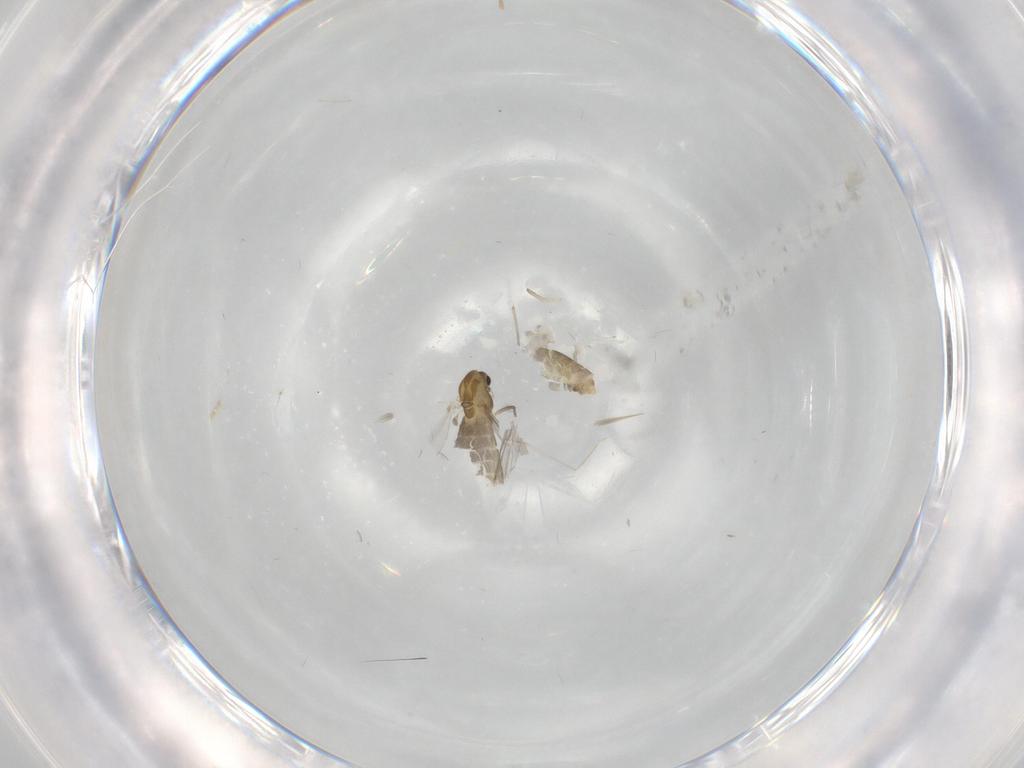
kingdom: Animalia
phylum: Arthropoda
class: Insecta
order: Diptera
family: Chironomidae
